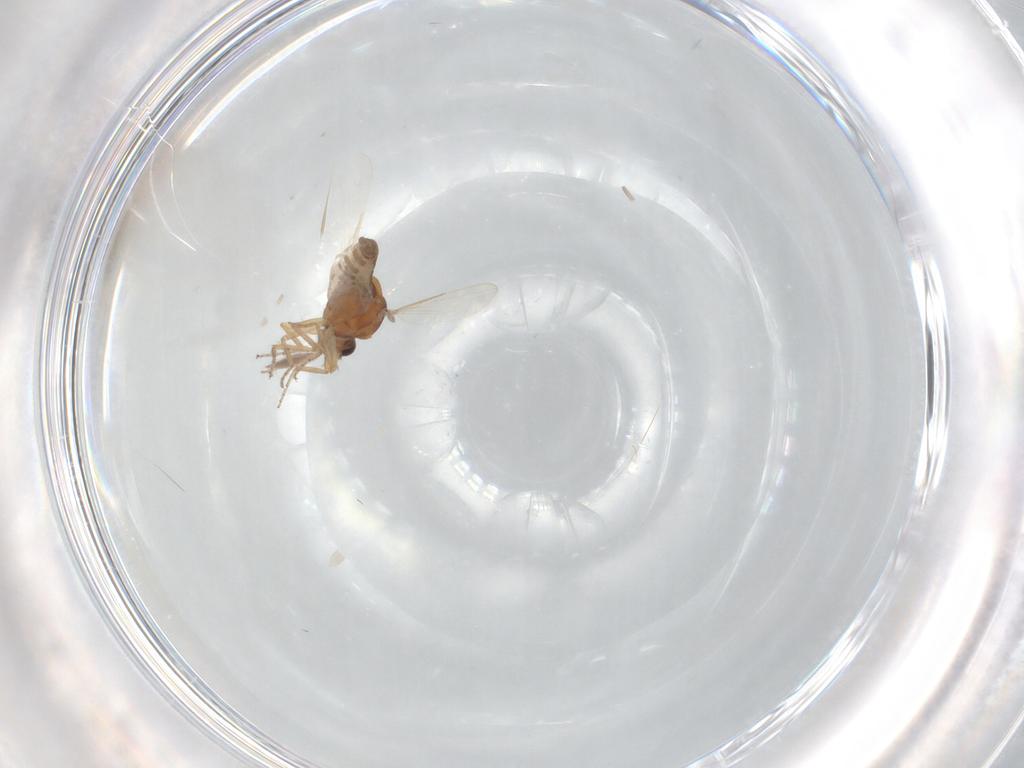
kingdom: Animalia
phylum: Arthropoda
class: Insecta
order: Diptera
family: Ceratopogonidae
